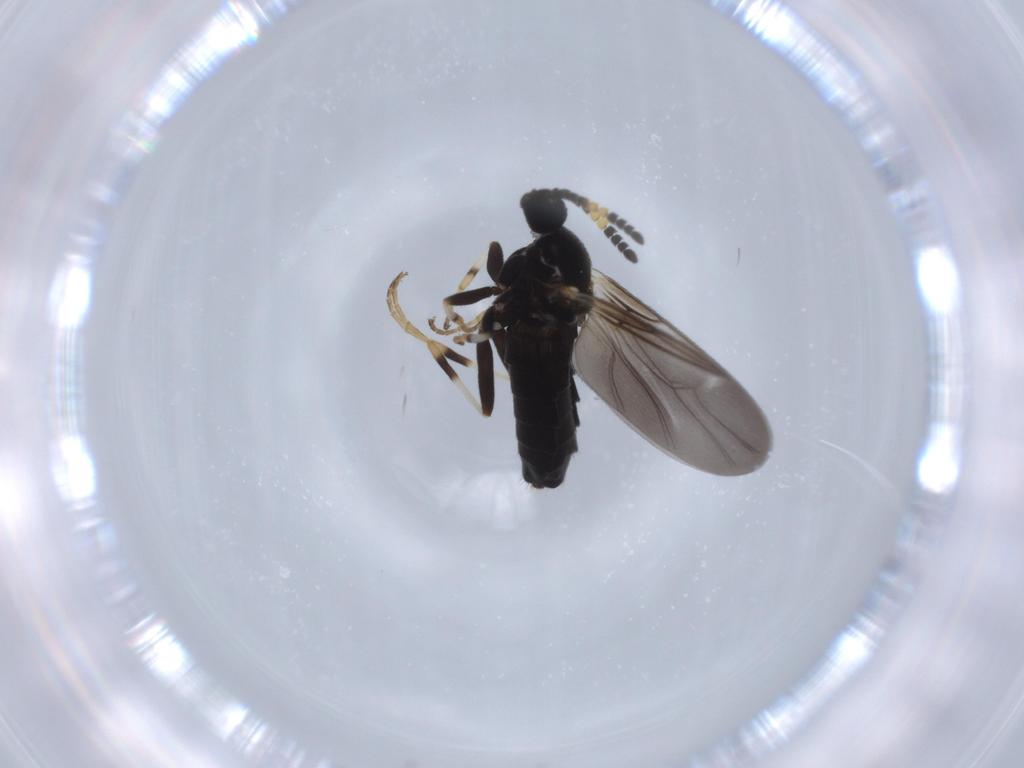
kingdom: Animalia
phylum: Arthropoda
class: Insecta
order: Diptera
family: Scatopsidae
